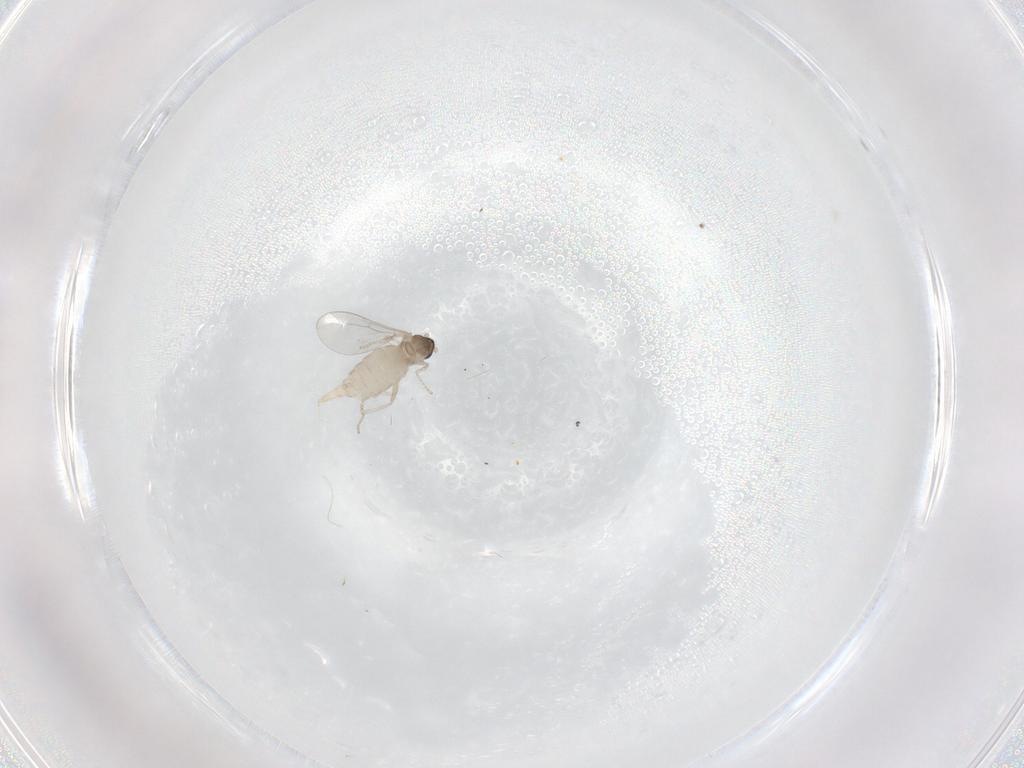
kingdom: Animalia
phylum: Arthropoda
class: Insecta
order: Diptera
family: Cecidomyiidae
